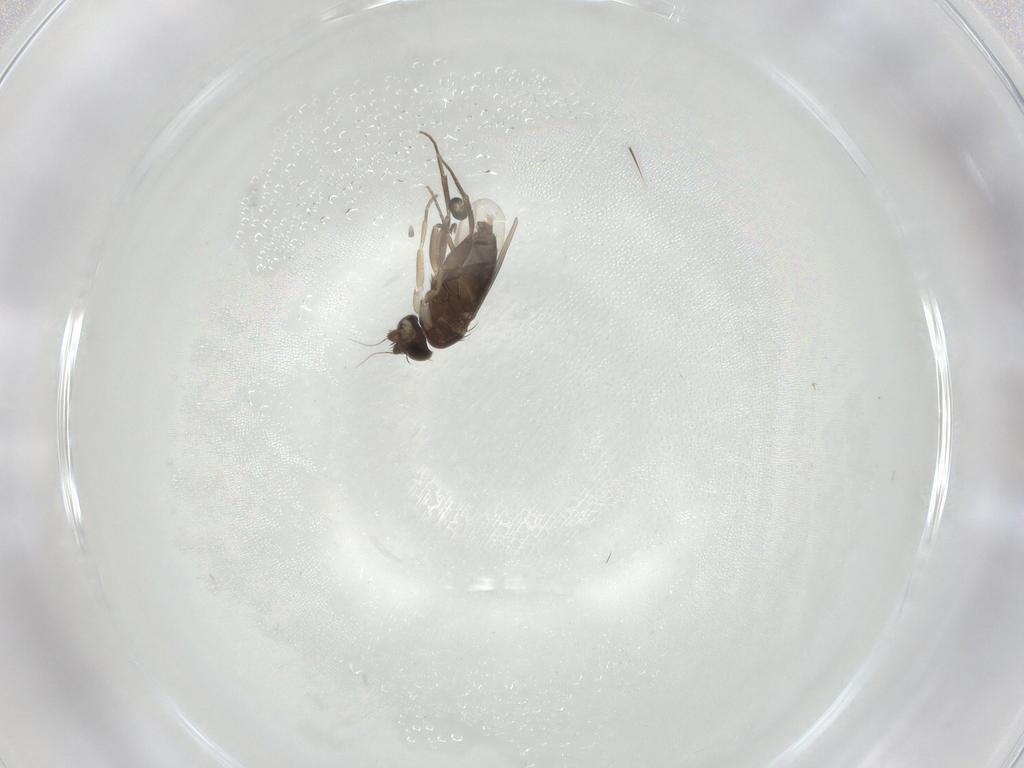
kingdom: Animalia
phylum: Arthropoda
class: Insecta
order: Diptera
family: Phoridae
